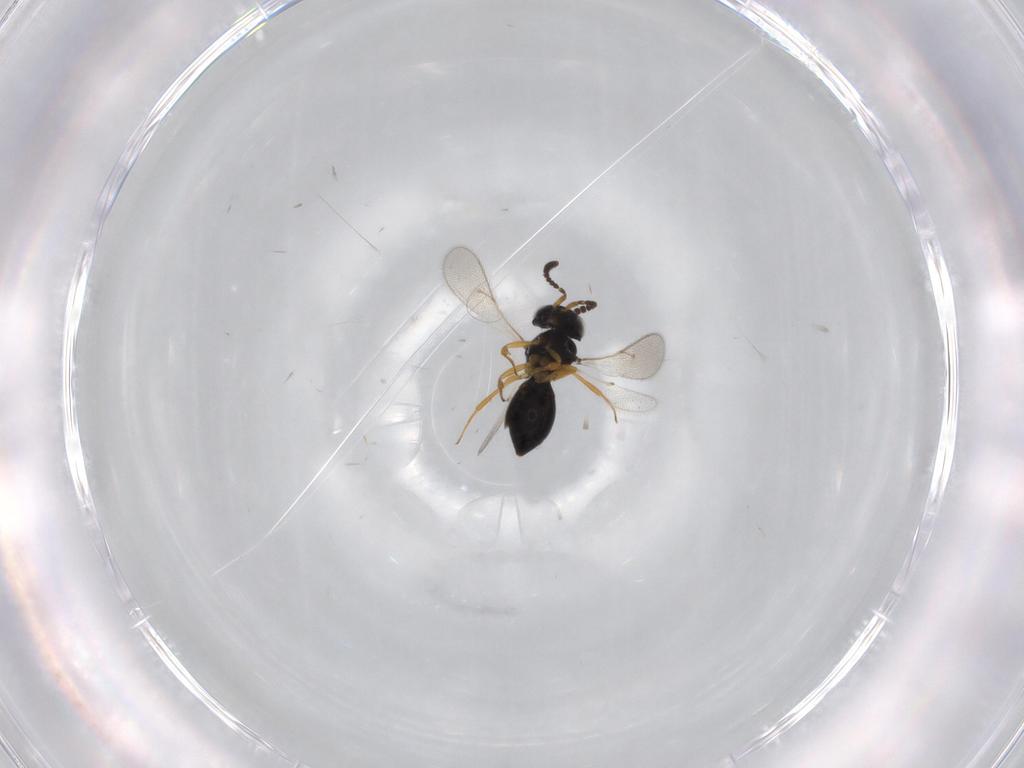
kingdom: Animalia
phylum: Arthropoda
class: Insecta
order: Hymenoptera
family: Scelionidae
